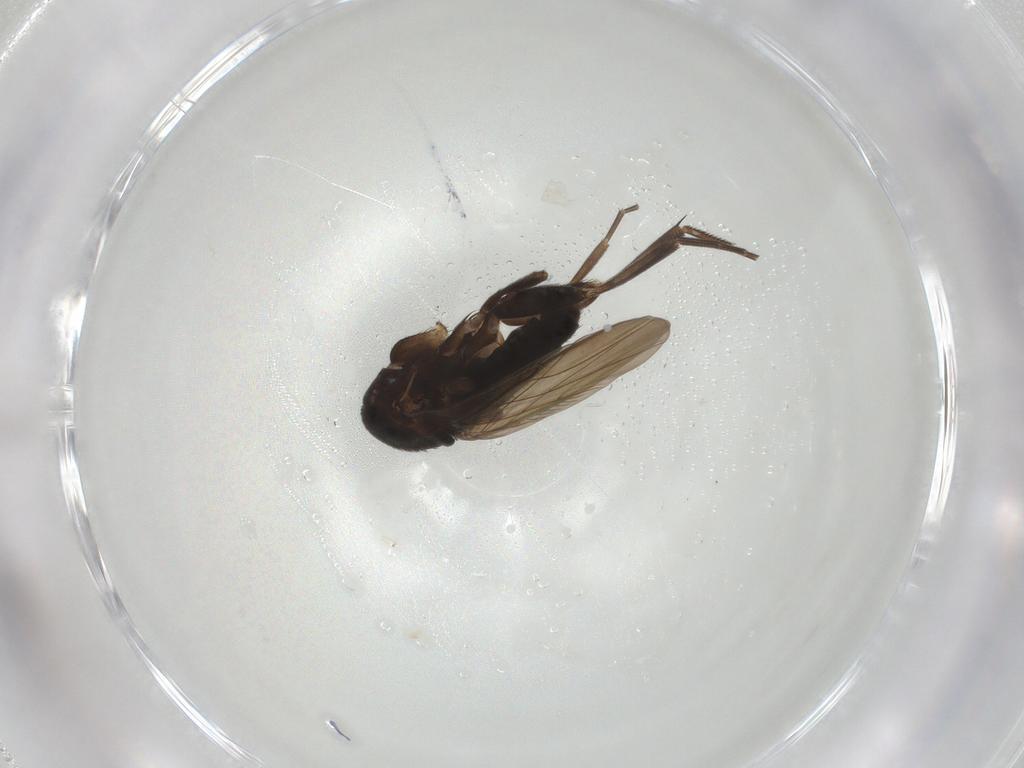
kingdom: Animalia
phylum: Arthropoda
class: Insecta
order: Diptera
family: Phoridae
